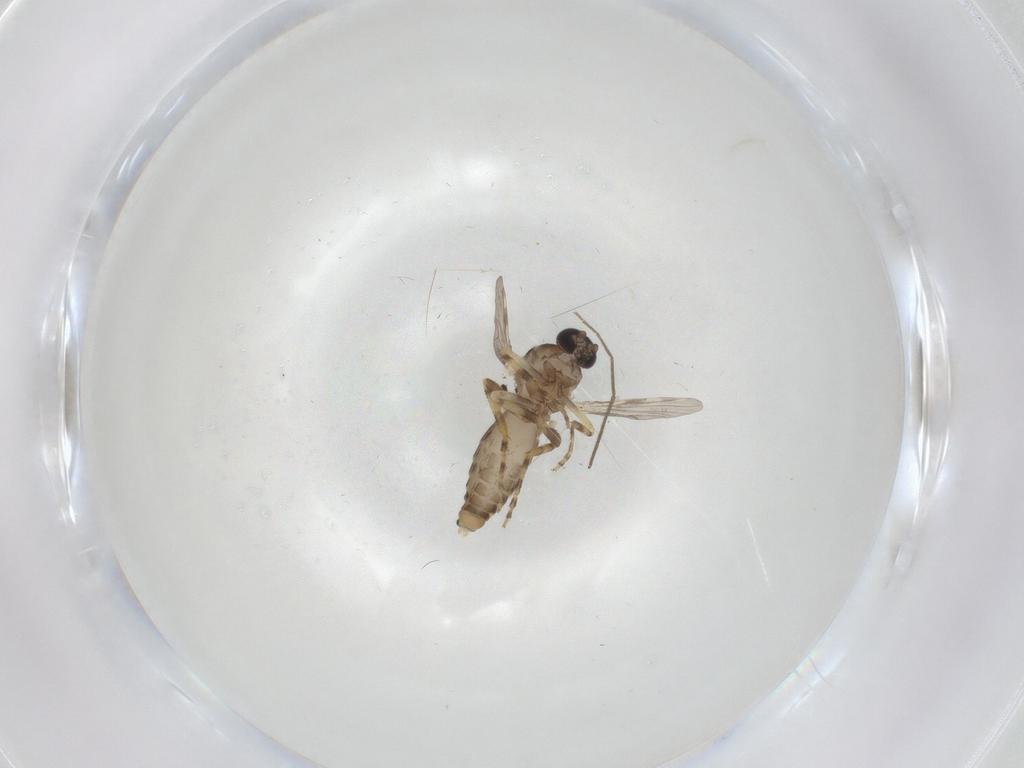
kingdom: Animalia
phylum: Arthropoda
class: Insecta
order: Diptera
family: Ceratopogonidae
